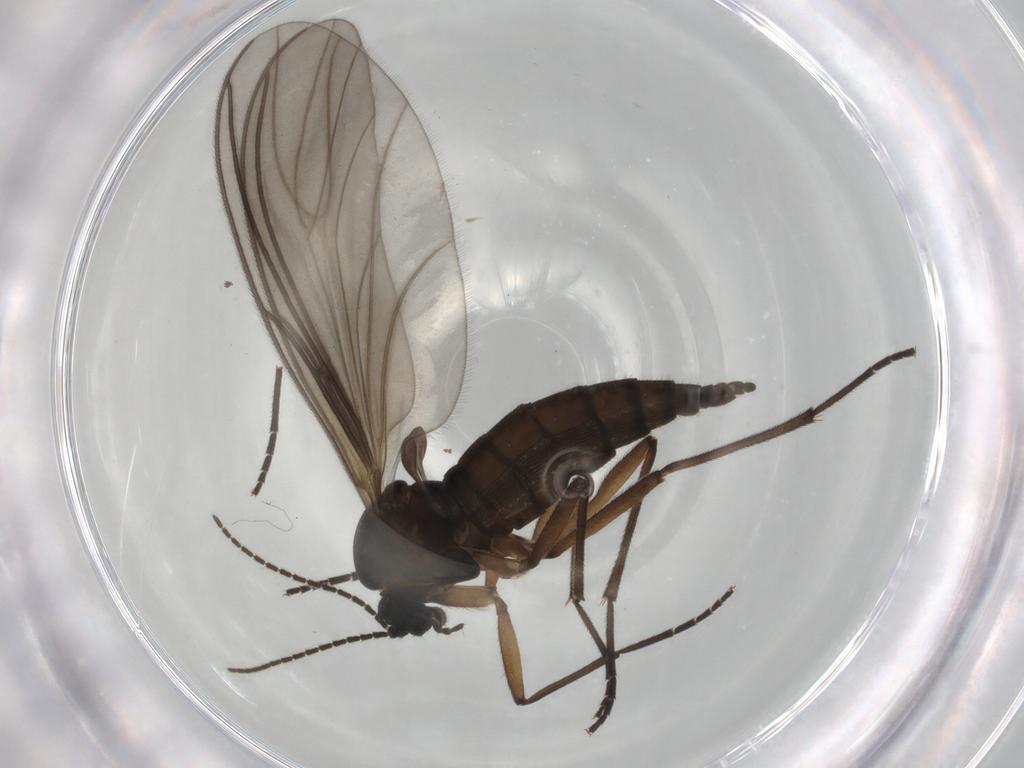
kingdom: Animalia
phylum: Arthropoda
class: Insecta
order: Diptera
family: Sciaridae
